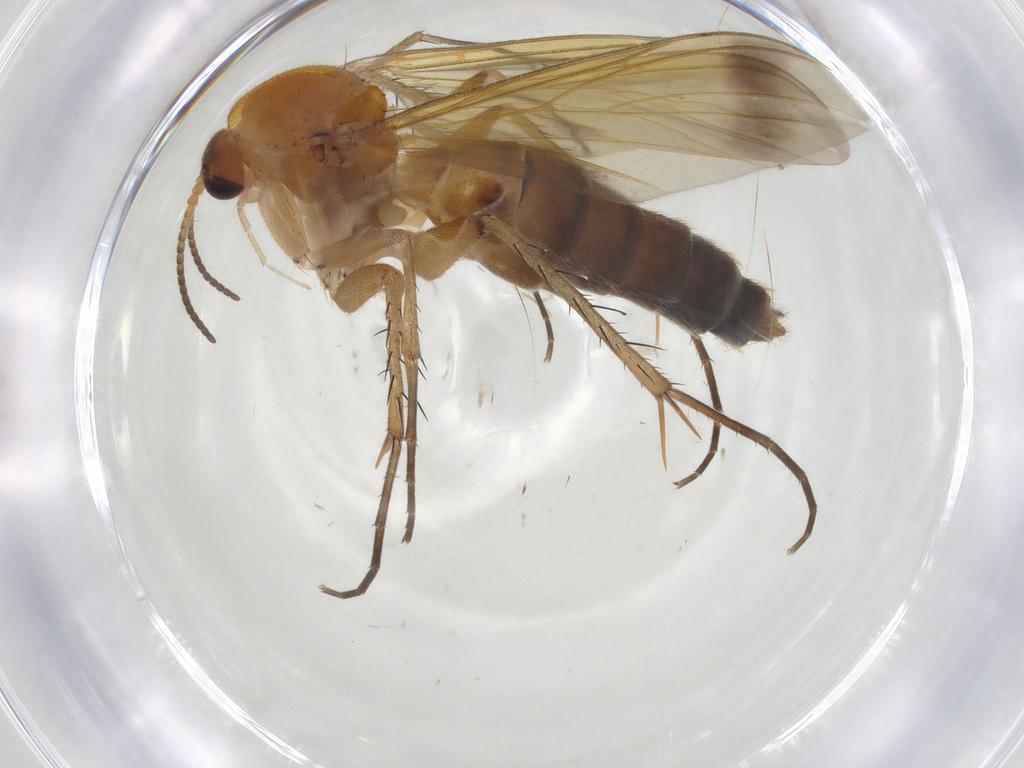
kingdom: Animalia
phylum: Arthropoda
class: Insecta
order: Diptera
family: Mycetophilidae
